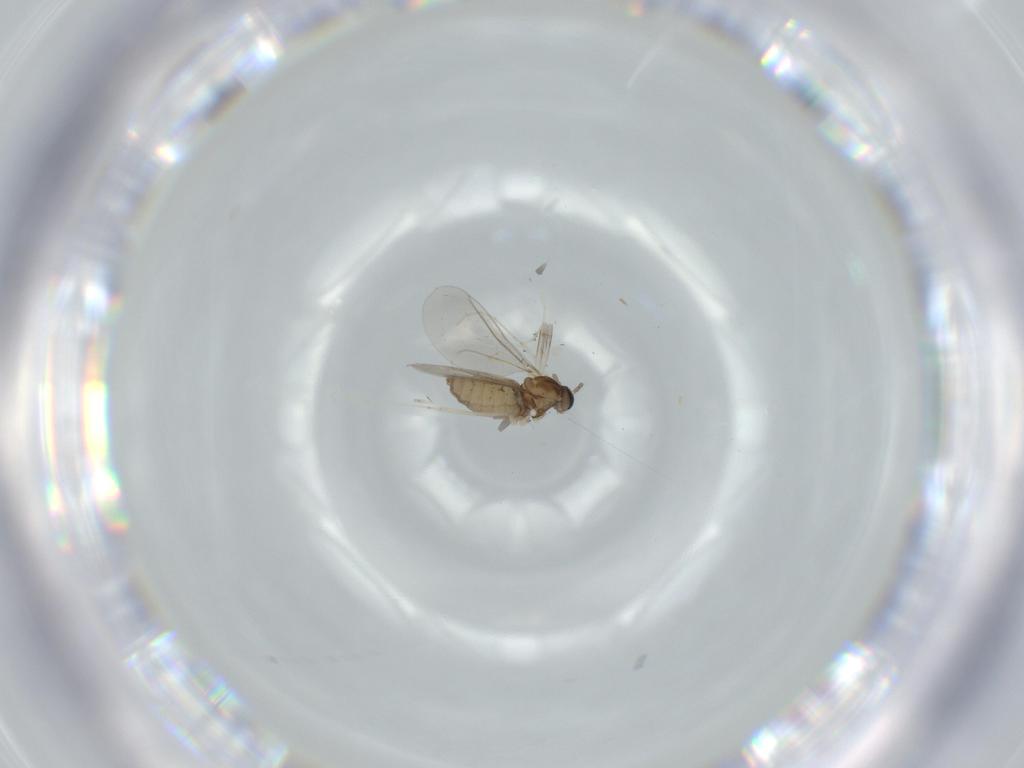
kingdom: Animalia
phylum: Arthropoda
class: Insecta
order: Diptera
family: Cecidomyiidae
